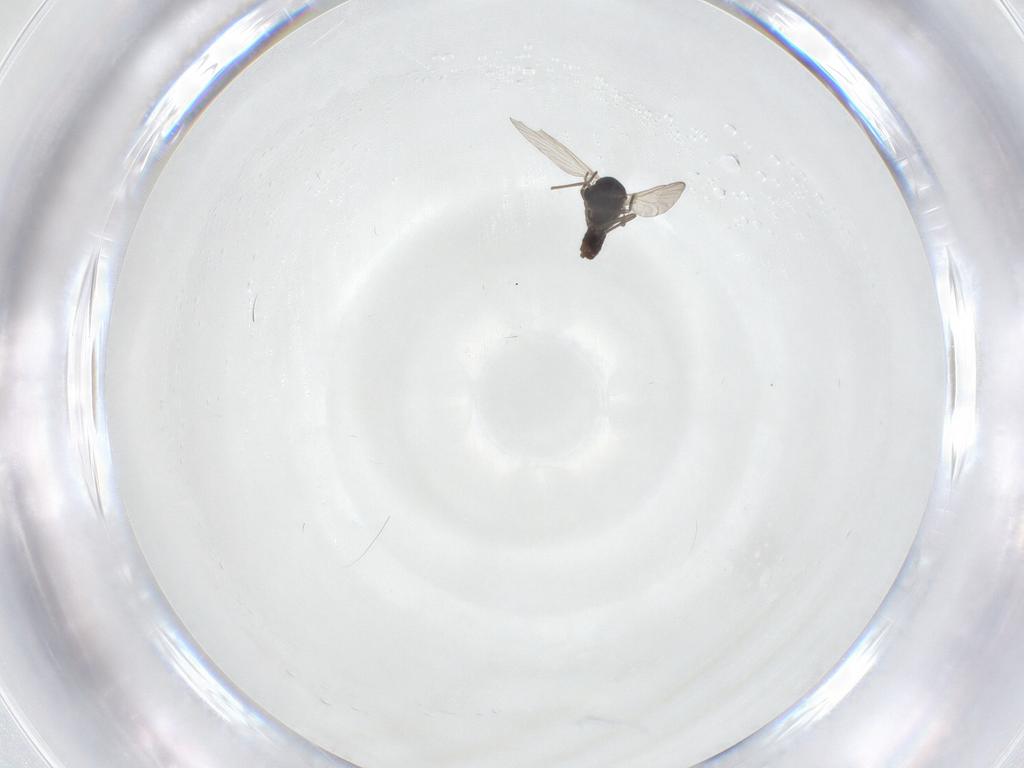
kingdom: Animalia
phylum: Arthropoda
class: Insecta
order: Diptera
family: Chironomidae
